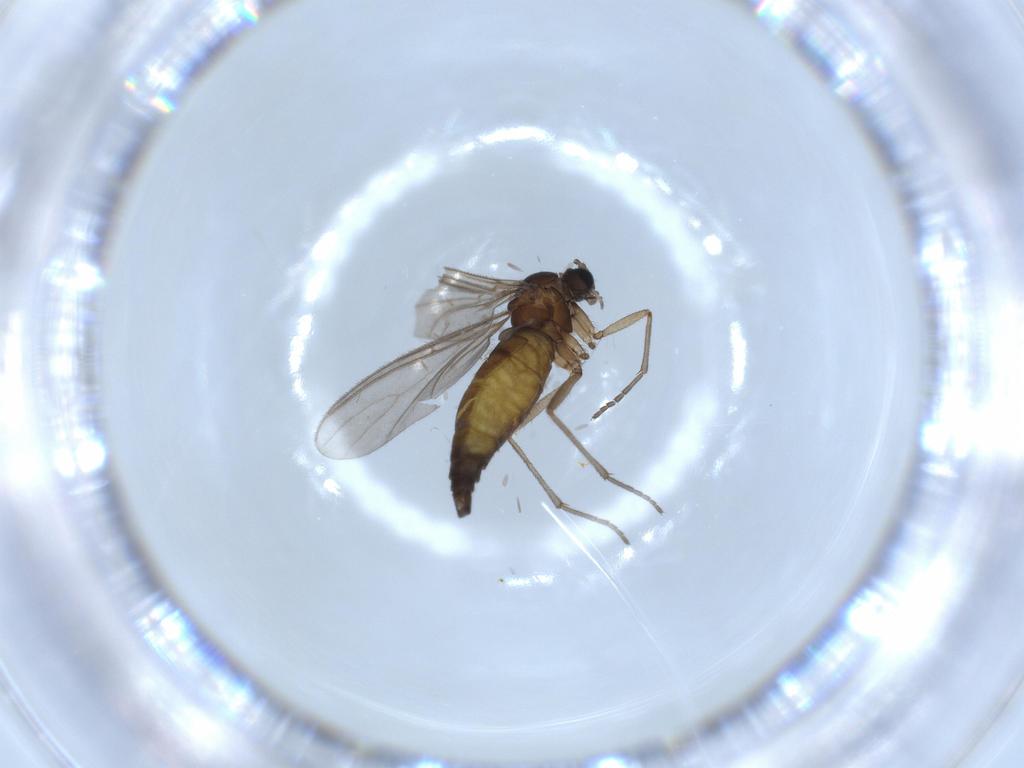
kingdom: Animalia
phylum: Arthropoda
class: Insecta
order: Diptera
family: Sciaridae
